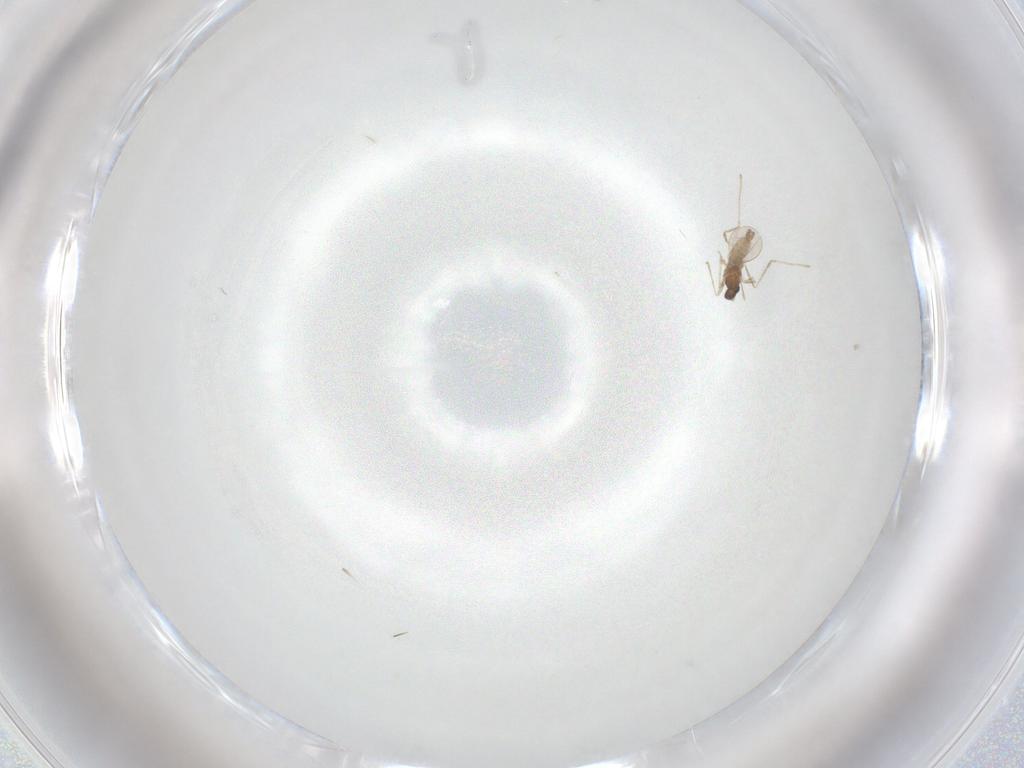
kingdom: Animalia
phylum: Arthropoda
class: Insecta
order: Diptera
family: Cecidomyiidae
